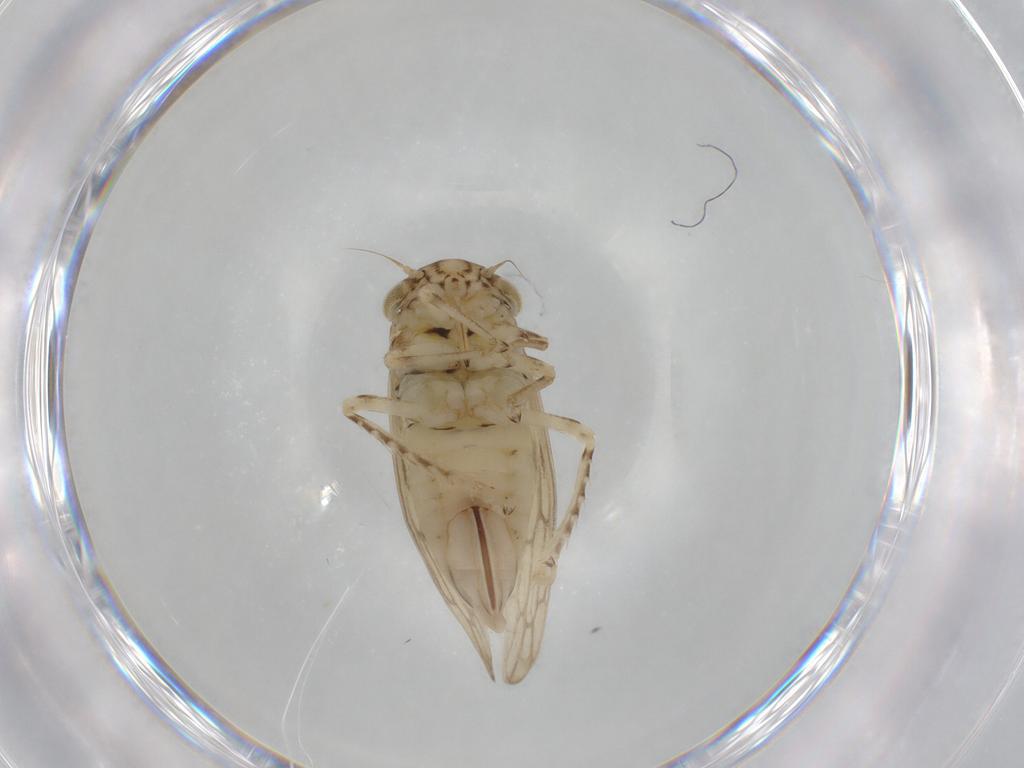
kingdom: Animalia
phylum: Arthropoda
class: Insecta
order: Hemiptera
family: Cicadellidae
